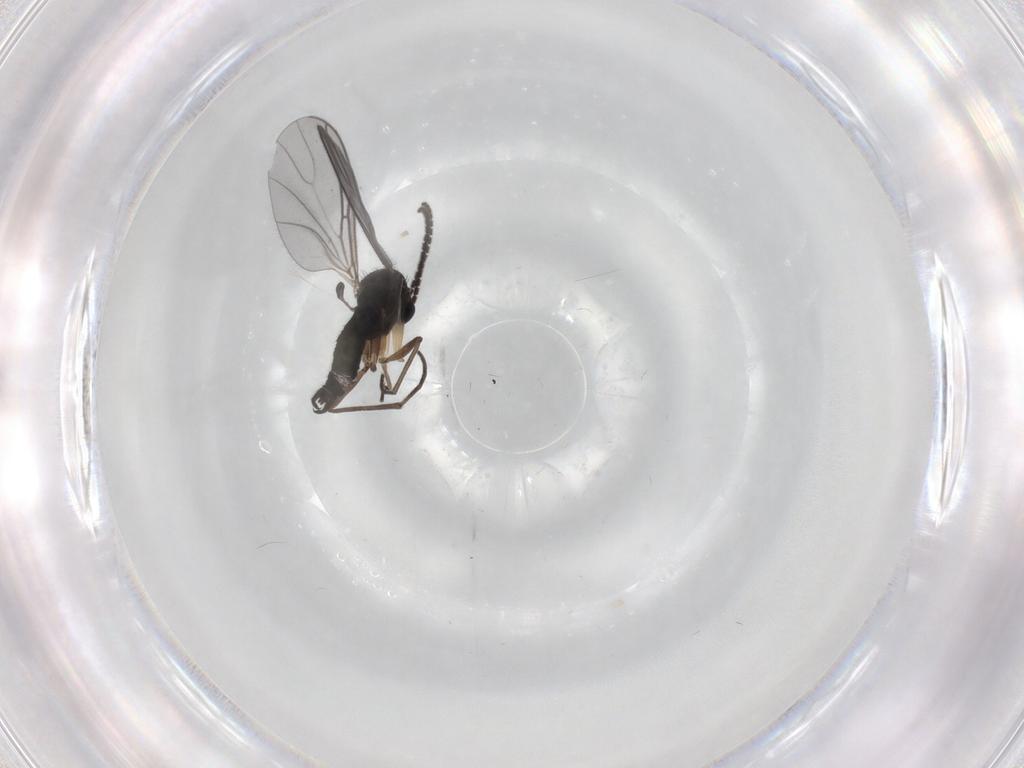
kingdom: Animalia
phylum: Arthropoda
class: Insecta
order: Diptera
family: Sciaridae
